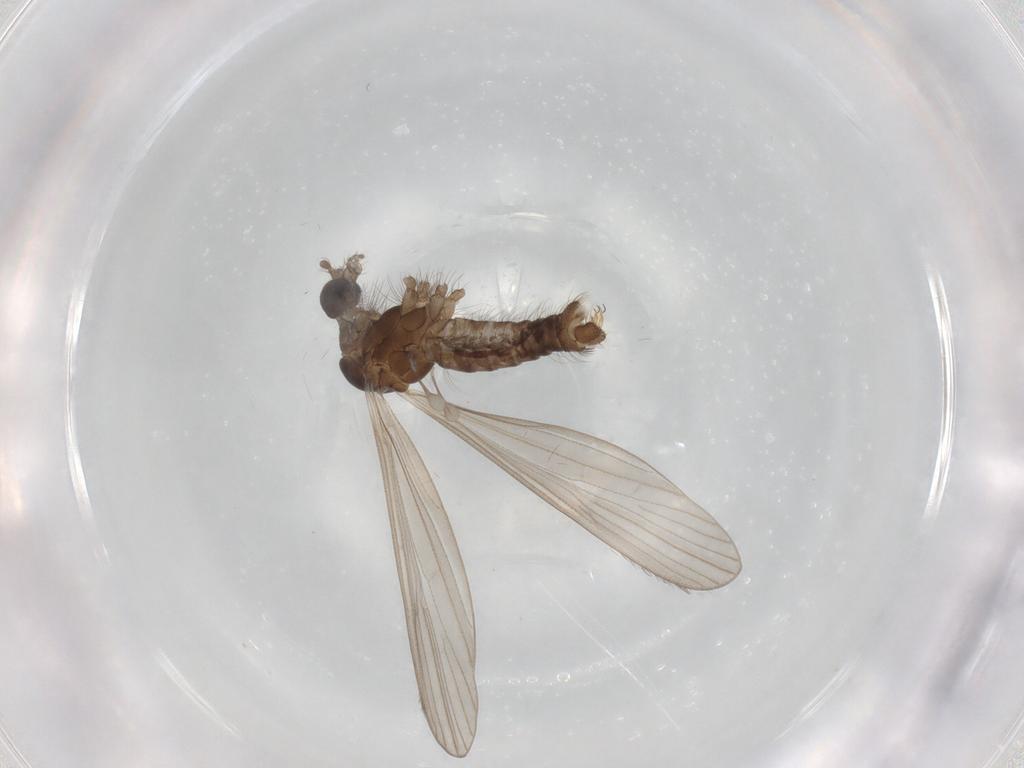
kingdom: Animalia
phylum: Arthropoda
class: Insecta
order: Diptera
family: Limoniidae
